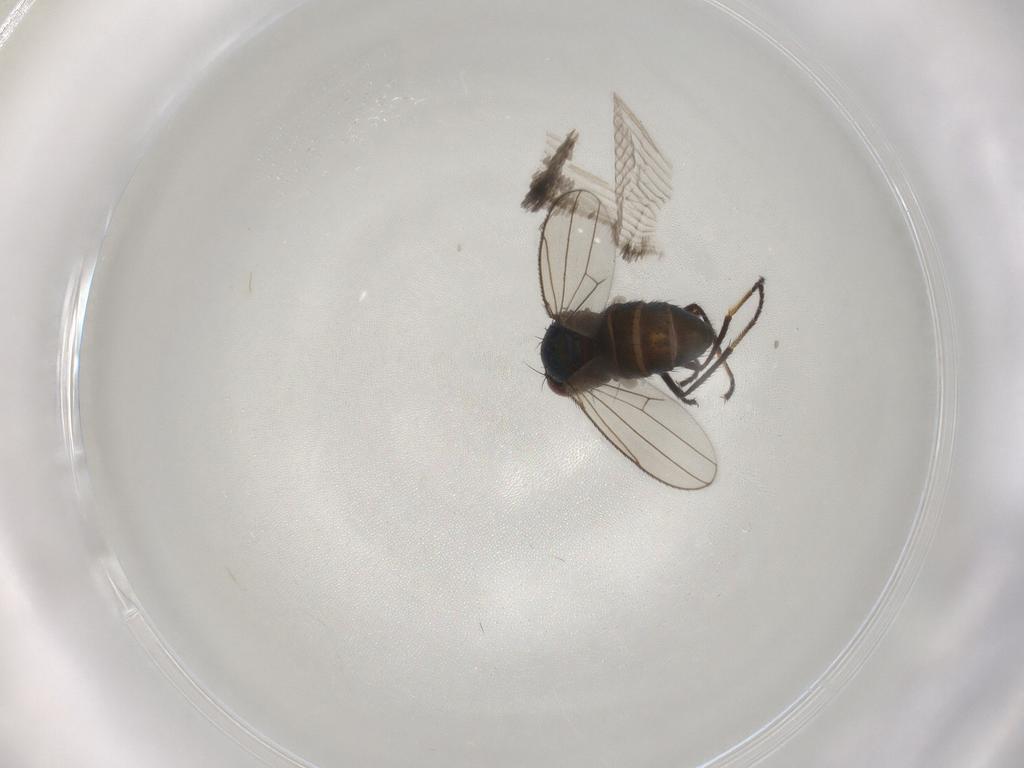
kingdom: Animalia
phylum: Arthropoda
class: Insecta
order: Diptera
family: Ephydridae
